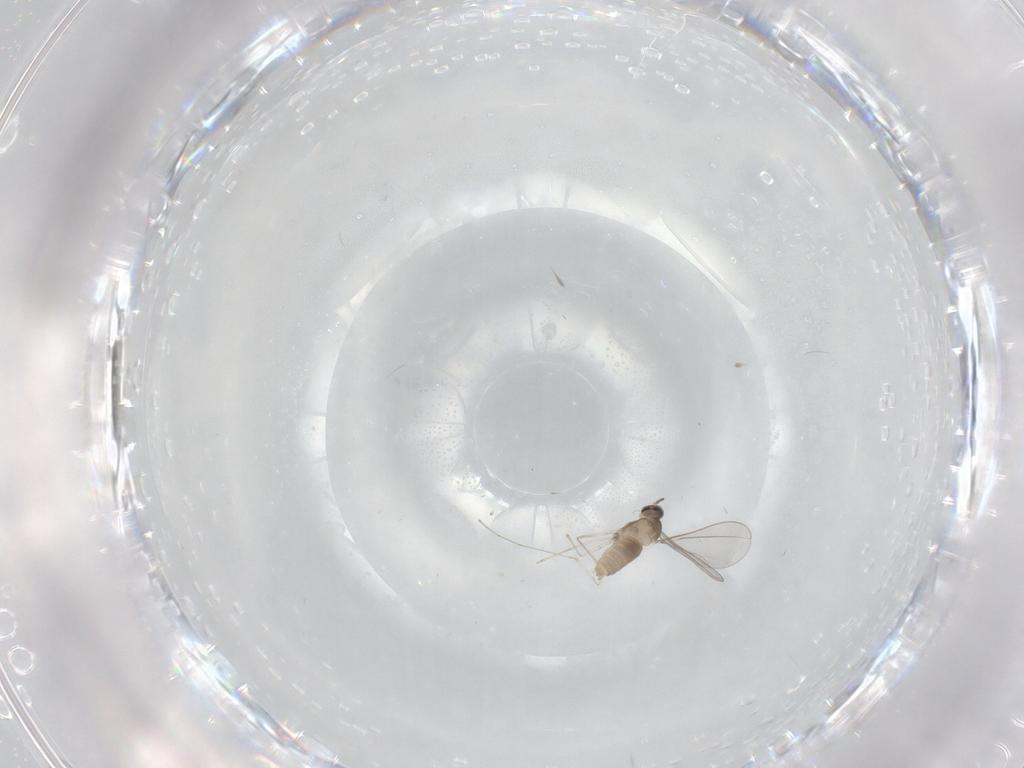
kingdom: Animalia
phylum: Arthropoda
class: Insecta
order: Diptera
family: Cecidomyiidae
